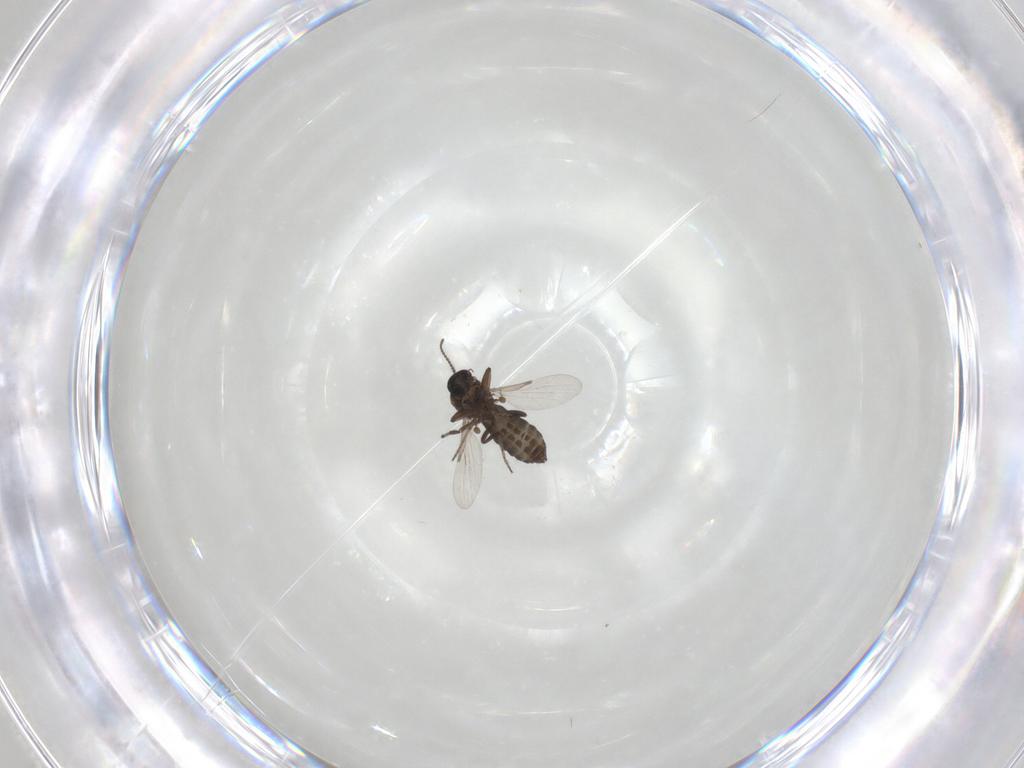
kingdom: Animalia
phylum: Arthropoda
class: Insecta
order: Diptera
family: Ceratopogonidae
